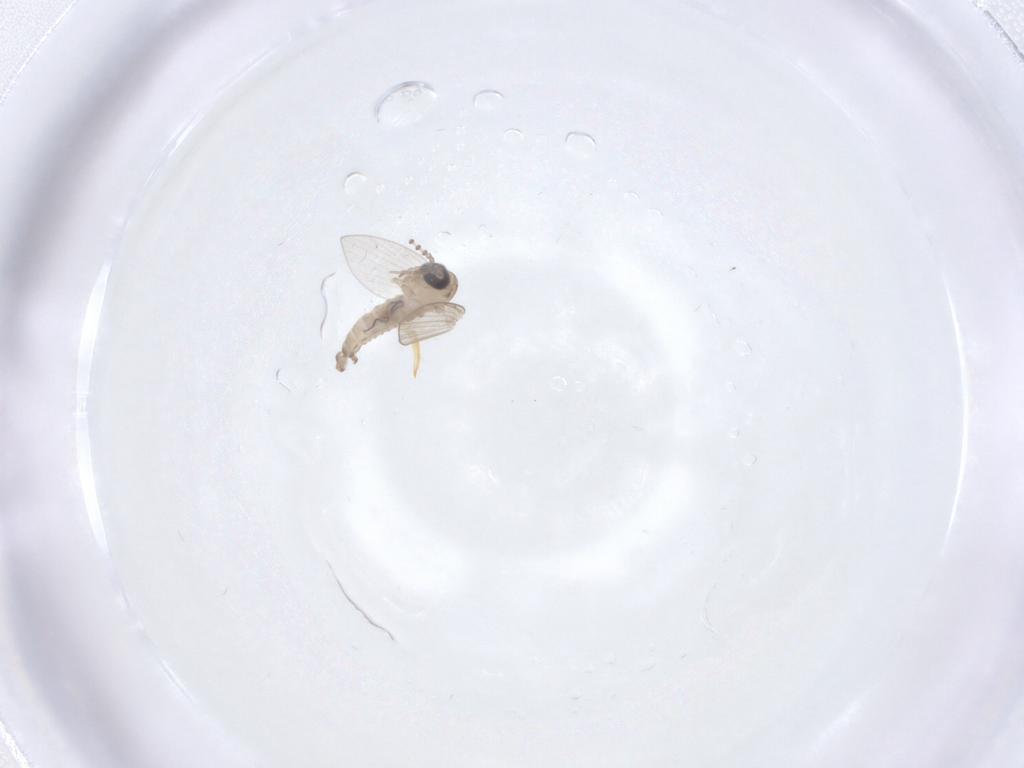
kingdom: Animalia
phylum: Arthropoda
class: Insecta
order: Diptera
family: Psychodidae
